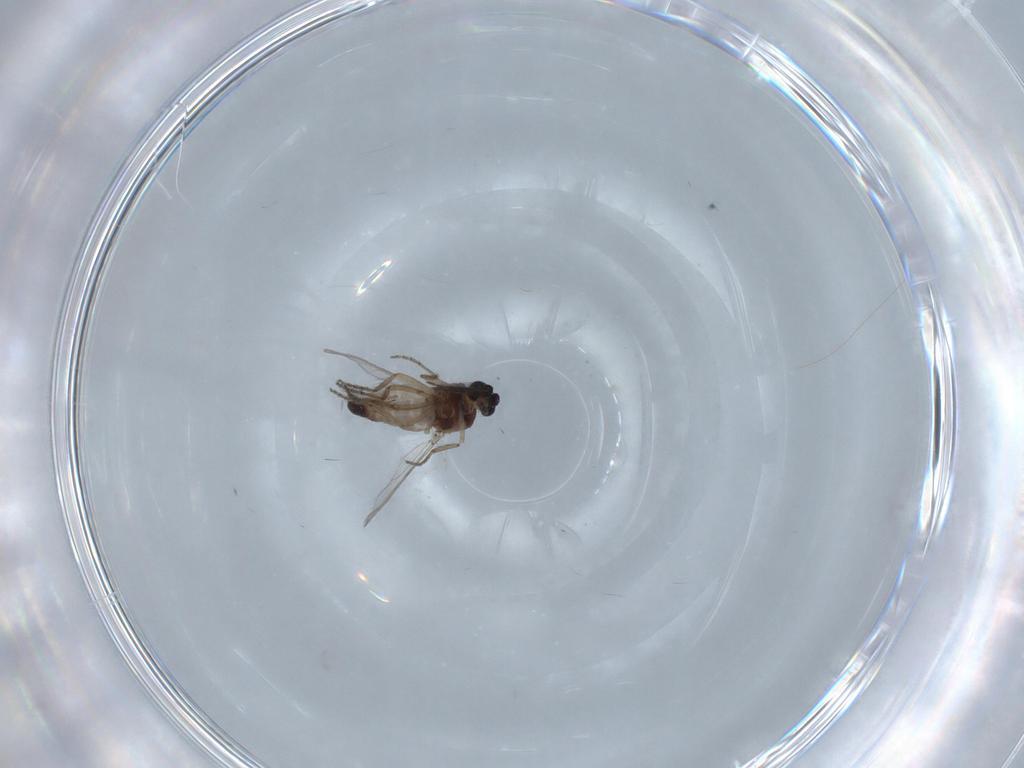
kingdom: Animalia
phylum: Arthropoda
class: Insecta
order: Diptera
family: Cecidomyiidae
